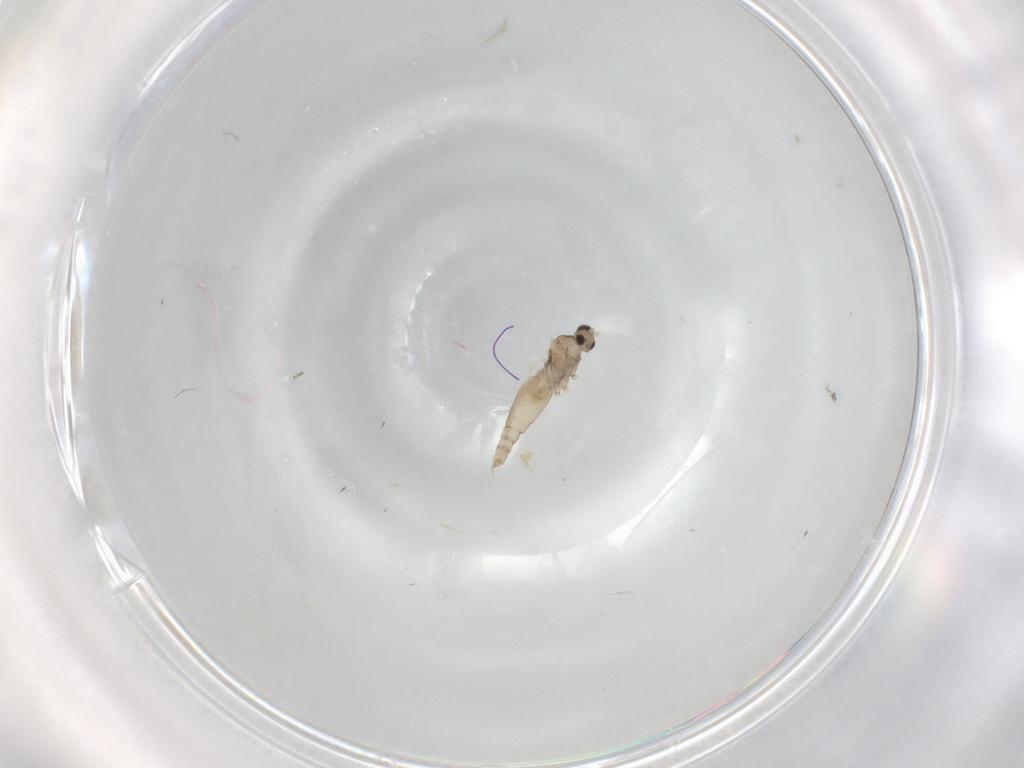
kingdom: Animalia
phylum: Arthropoda
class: Insecta
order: Diptera
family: Cecidomyiidae
